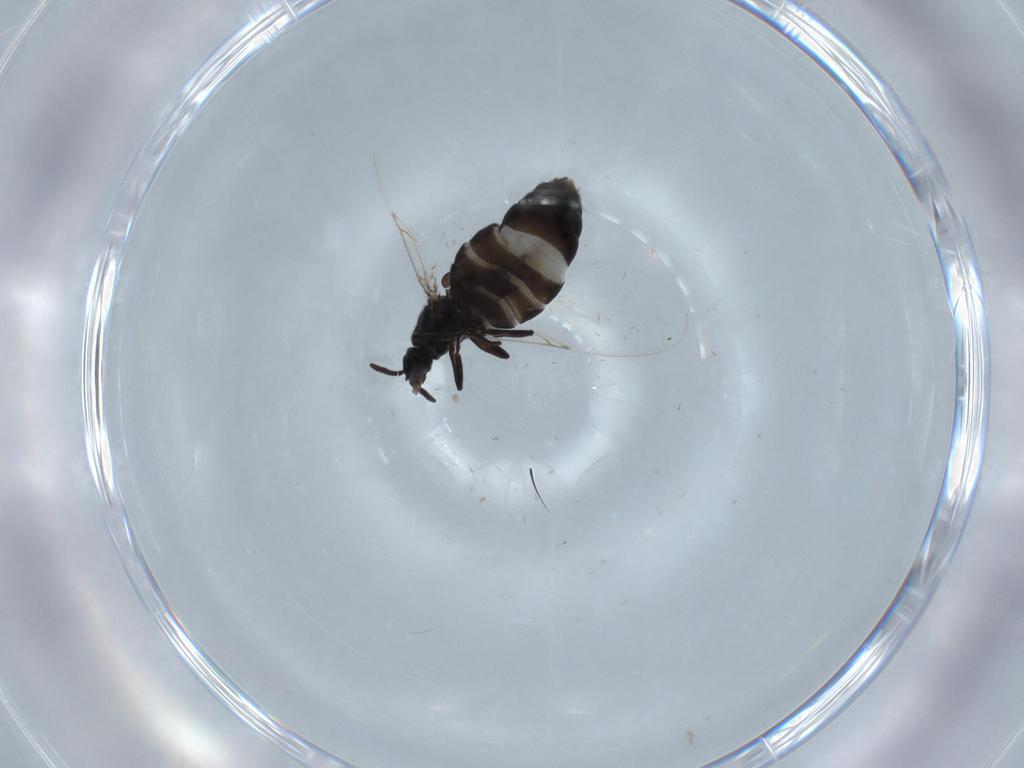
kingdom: Animalia
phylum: Arthropoda
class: Insecta
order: Diptera
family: Scatopsidae
